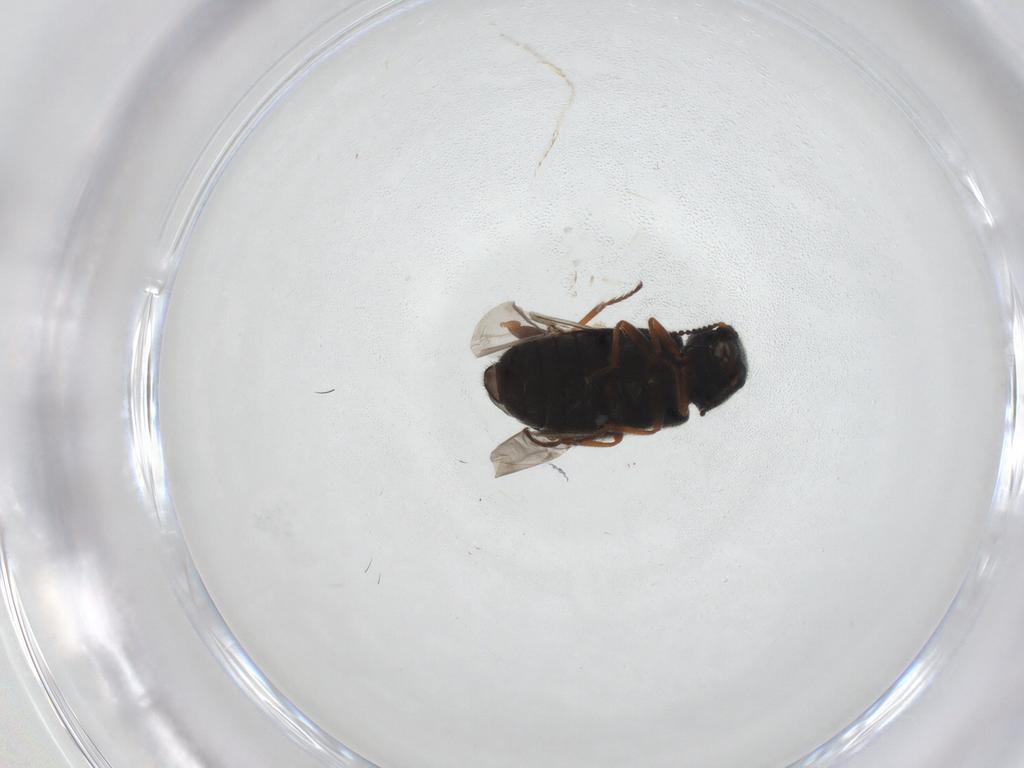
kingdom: Animalia
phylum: Arthropoda
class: Insecta
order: Coleoptera
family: Melyridae
